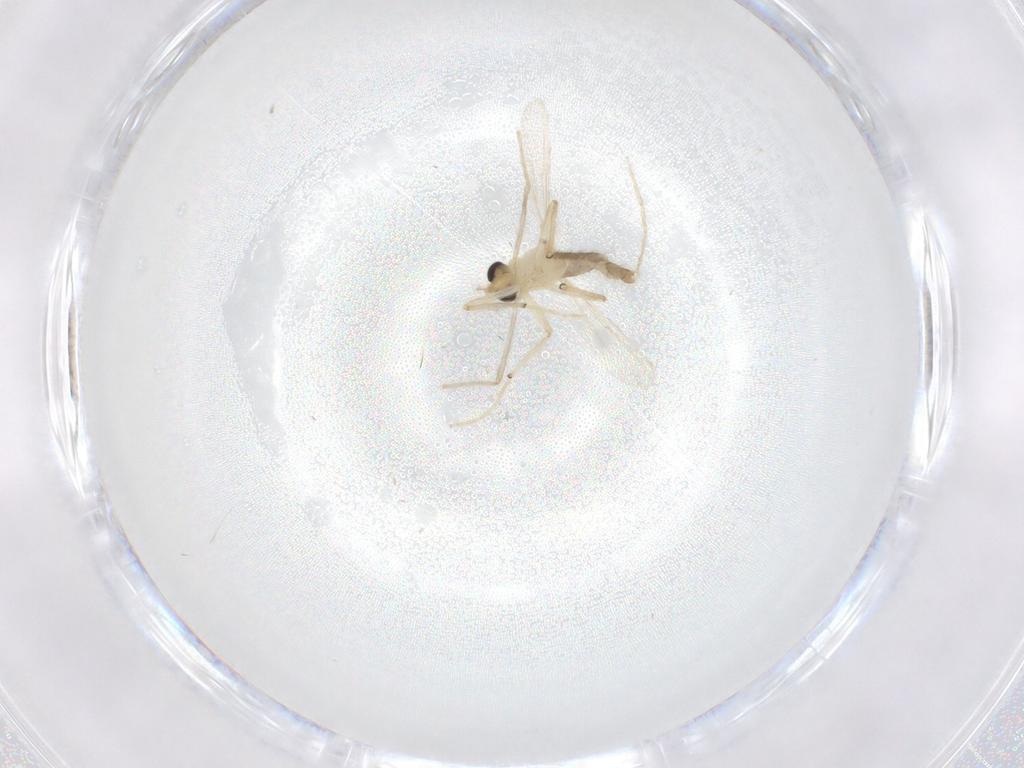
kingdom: Animalia
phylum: Arthropoda
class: Insecta
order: Diptera
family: Chironomidae
